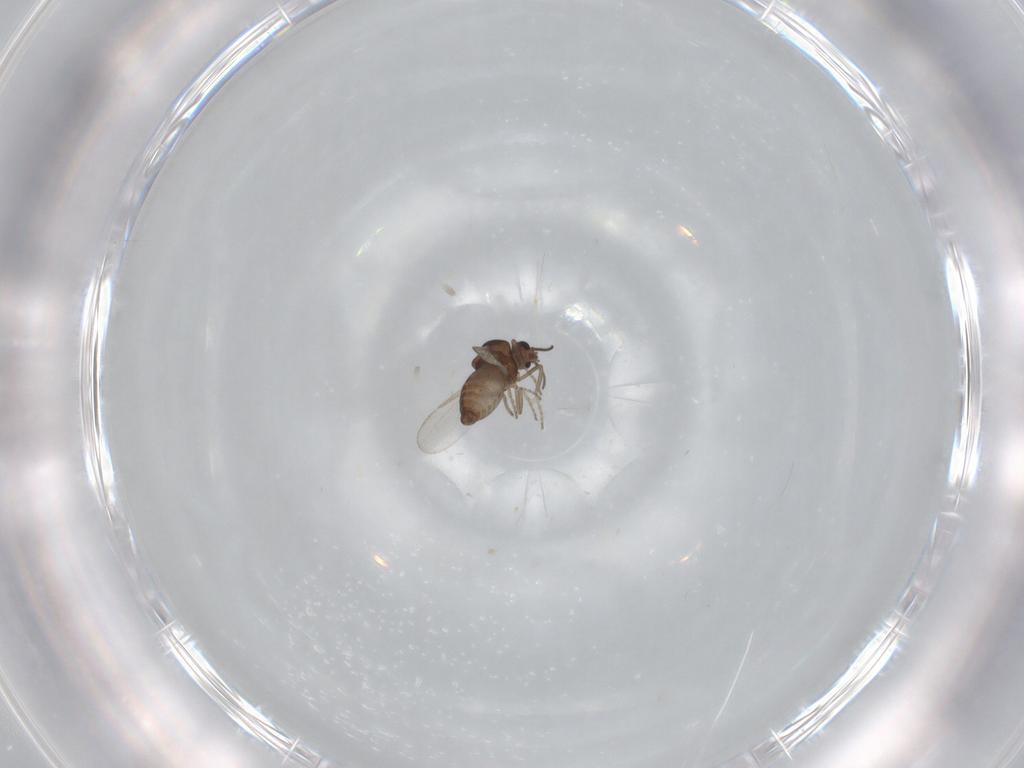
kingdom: Animalia
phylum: Arthropoda
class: Insecta
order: Diptera
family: Ceratopogonidae
